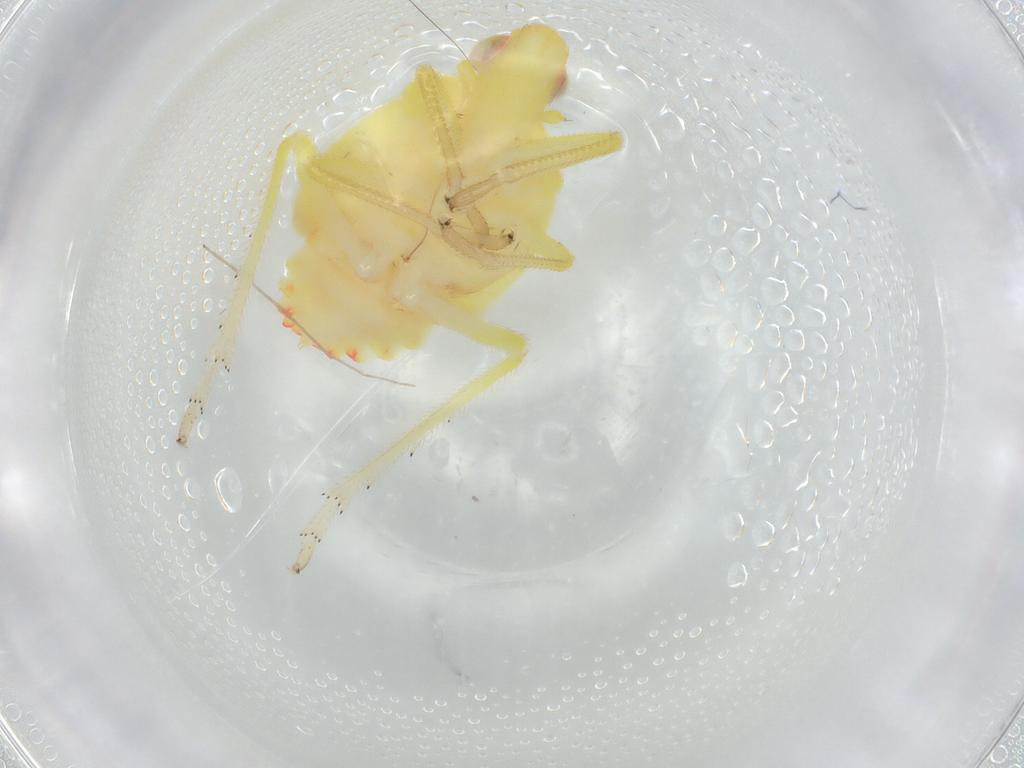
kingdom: Animalia
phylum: Arthropoda
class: Insecta
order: Hemiptera
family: Tropiduchidae
